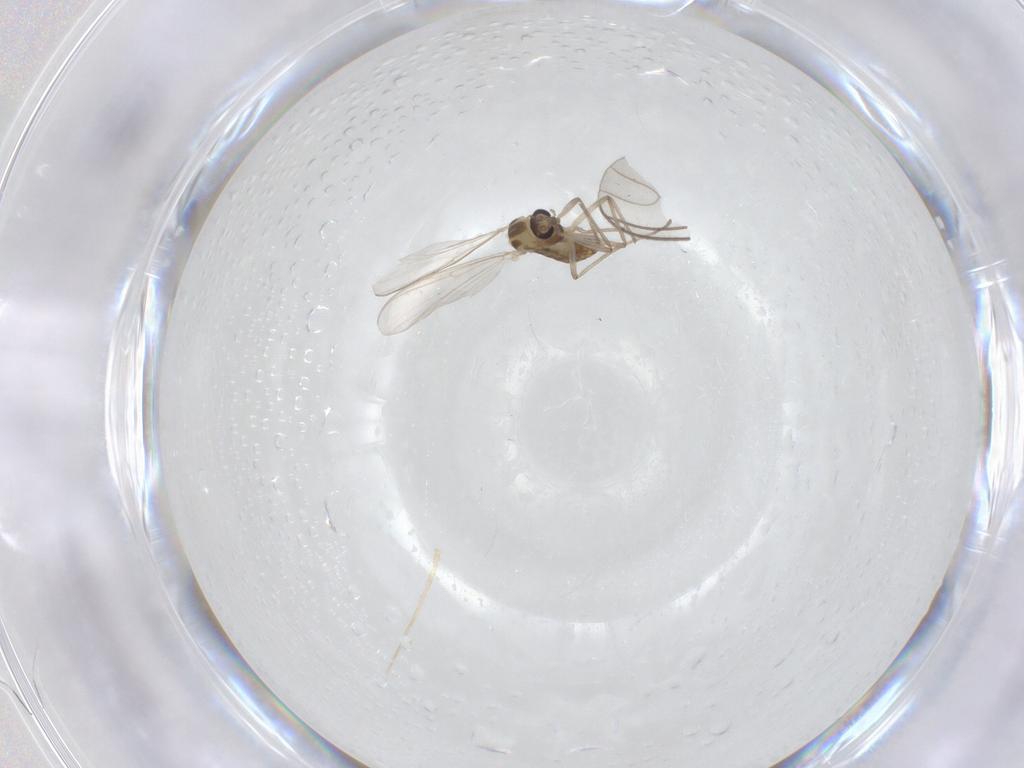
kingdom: Animalia
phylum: Arthropoda
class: Insecta
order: Diptera
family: Chironomidae
